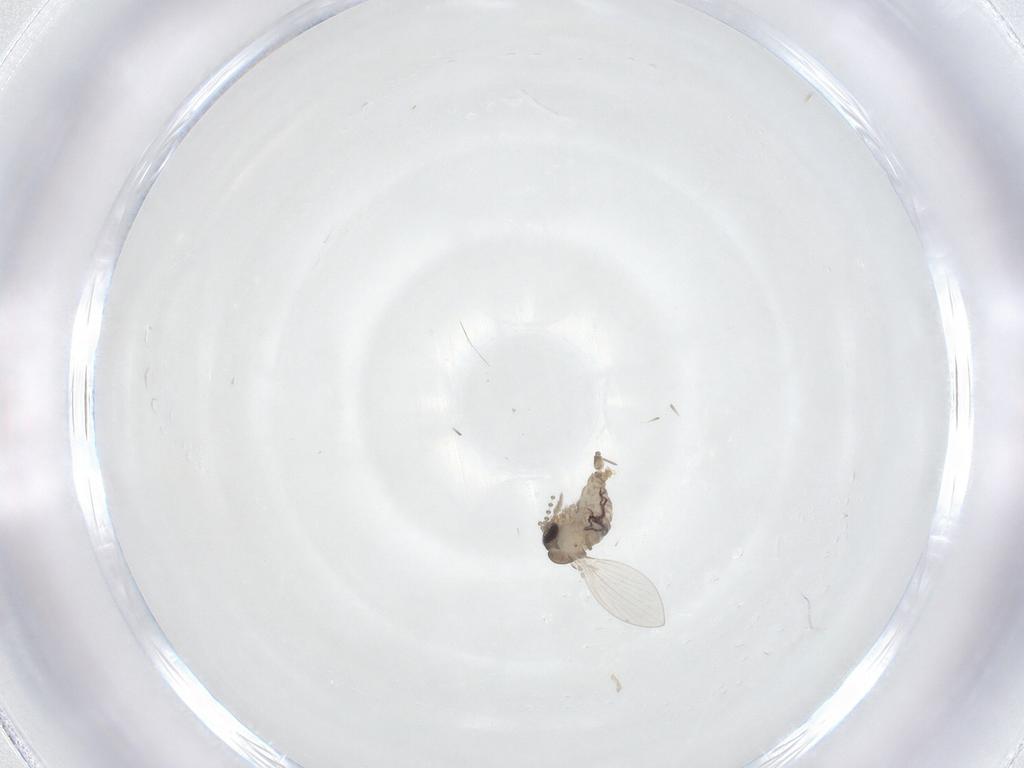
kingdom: Animalia
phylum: Arthropoda
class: Insecta
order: Diptera
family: Psychodidae
